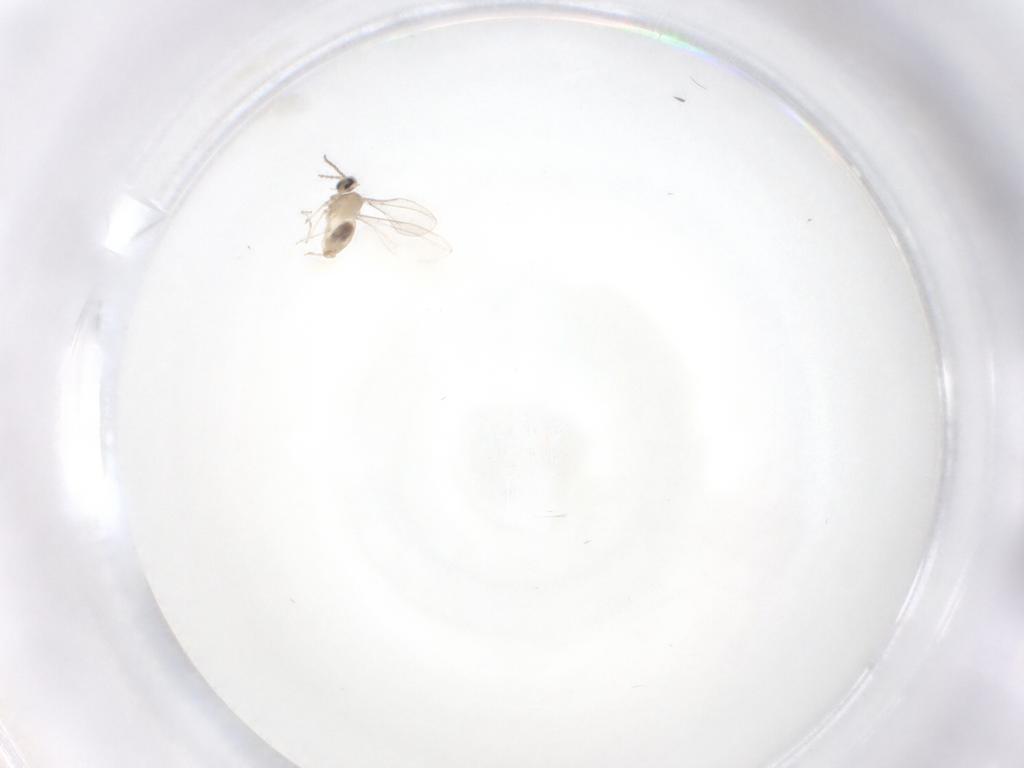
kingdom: Animalia
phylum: Arthropoda
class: Insecta
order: Diptera
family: Cecidomyiidae
